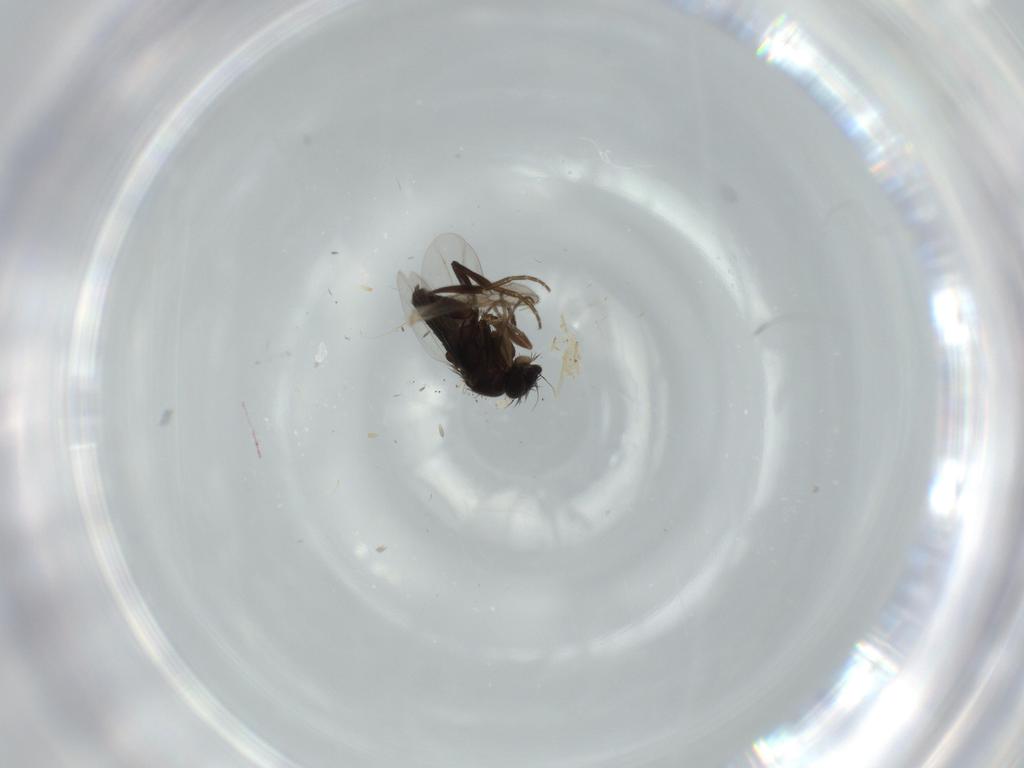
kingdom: Animalia
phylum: Arthropoda
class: Insecta
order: Diptera
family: Phoridae
